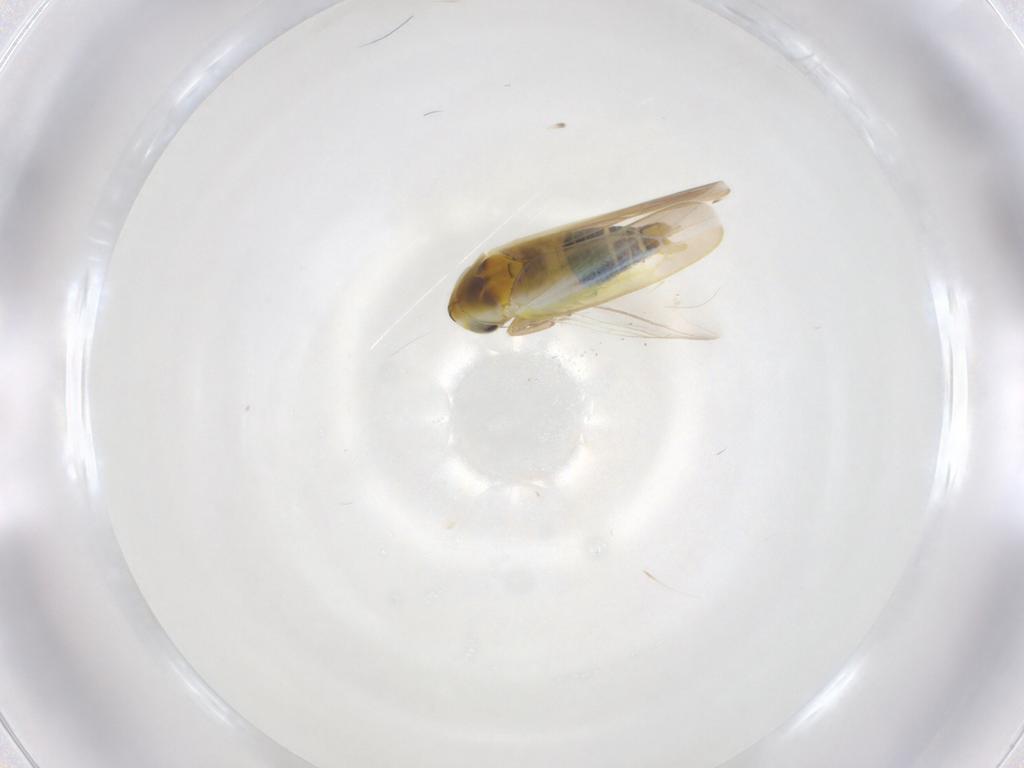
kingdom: Animalia
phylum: Arthropoda
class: Insecta
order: Hemiptera
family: Cicadellidae
